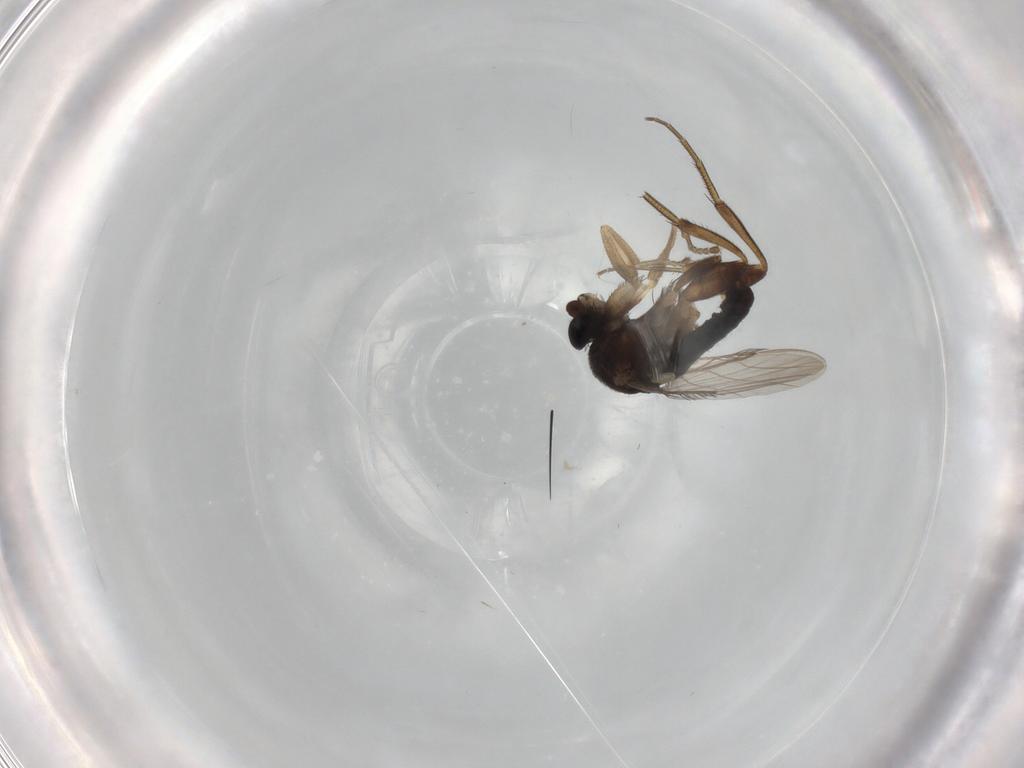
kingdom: Animalia
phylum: Arthropoda
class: Insecta
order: Diptera
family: Phoridae
